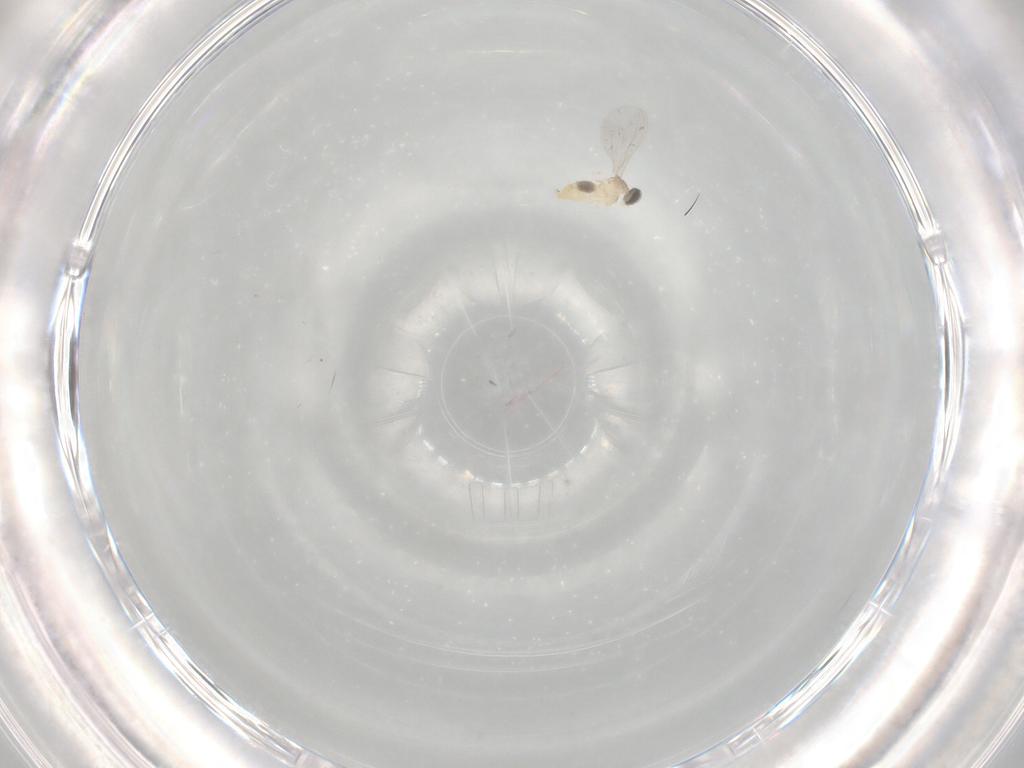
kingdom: Animalia
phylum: Arthropoda
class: Insecta
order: Diptera
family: Cecidomyiidae
